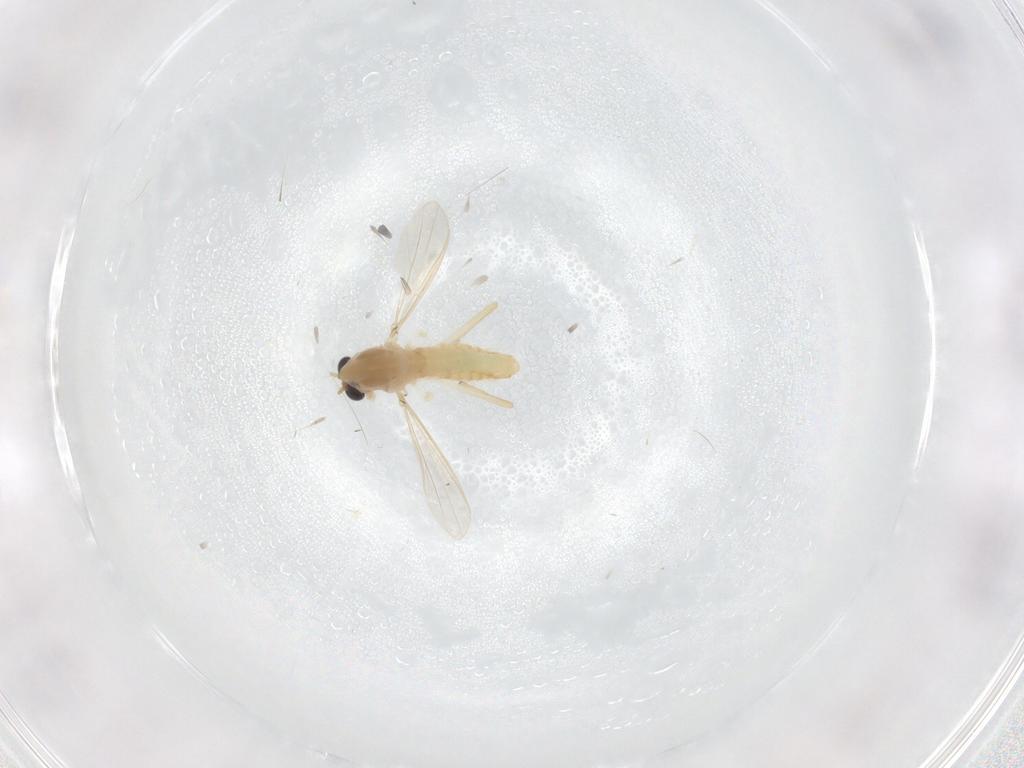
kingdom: Animalia
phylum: Arthropoda
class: Insecta
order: Diptera
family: Chironomidae
